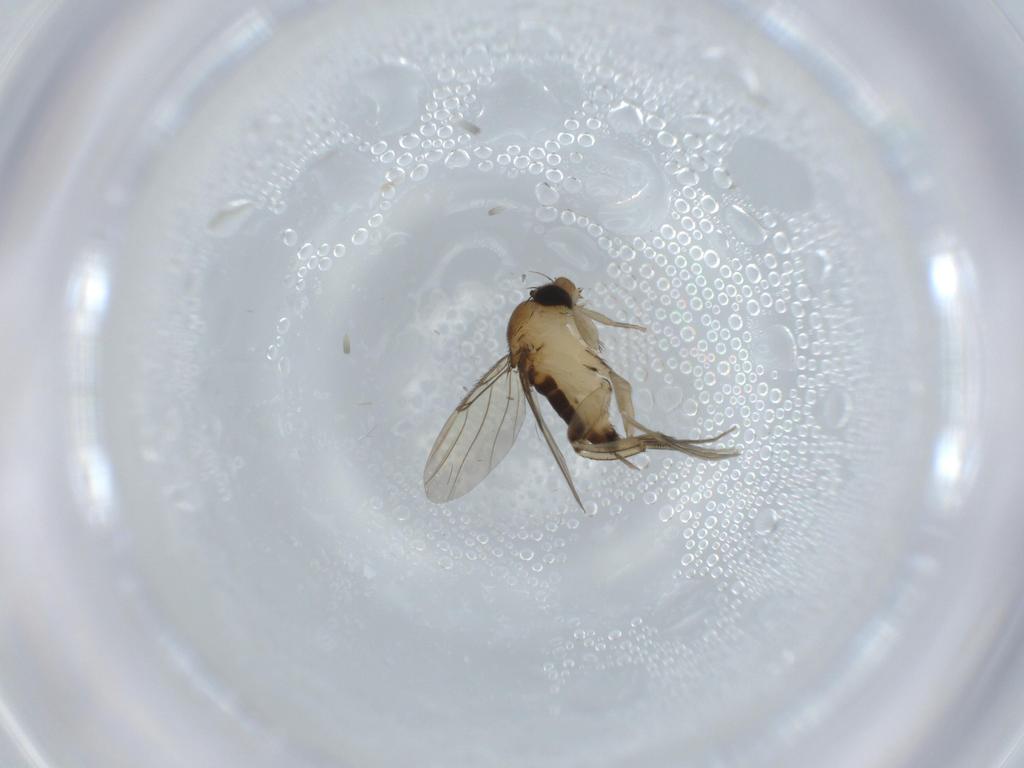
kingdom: Animalia
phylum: Arthropoda
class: Insecta
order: Diptera
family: Phoridae
